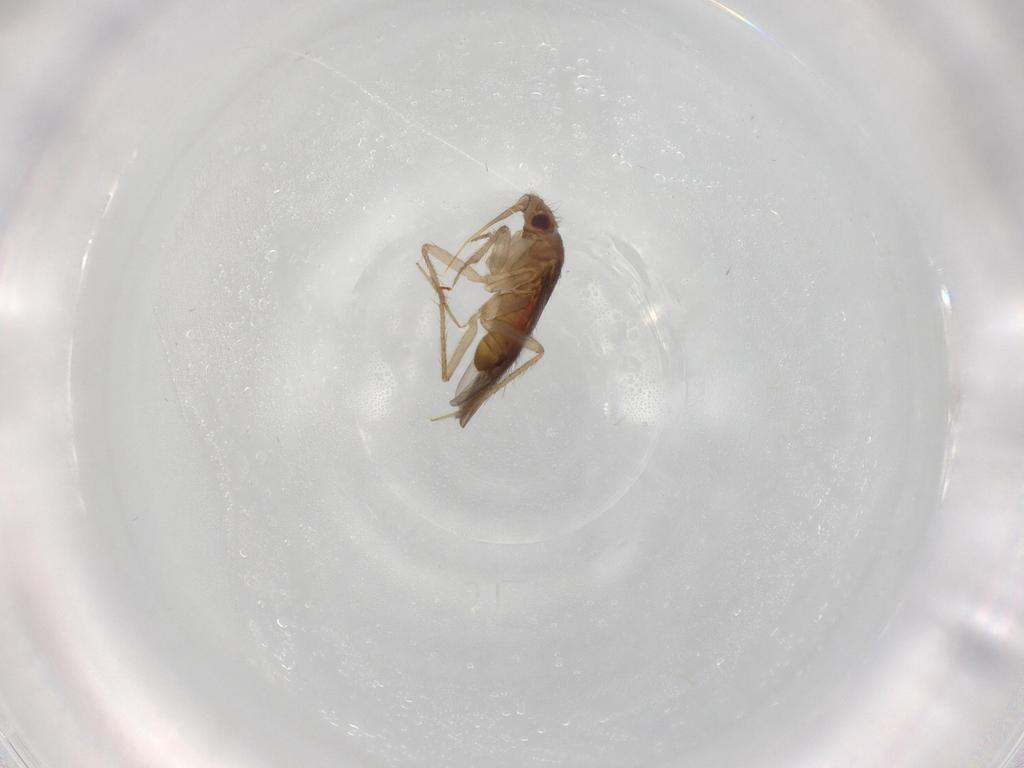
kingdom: Animalia
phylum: Arthropoda
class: Insecta
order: Hemiptera
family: Ceratocombidae
